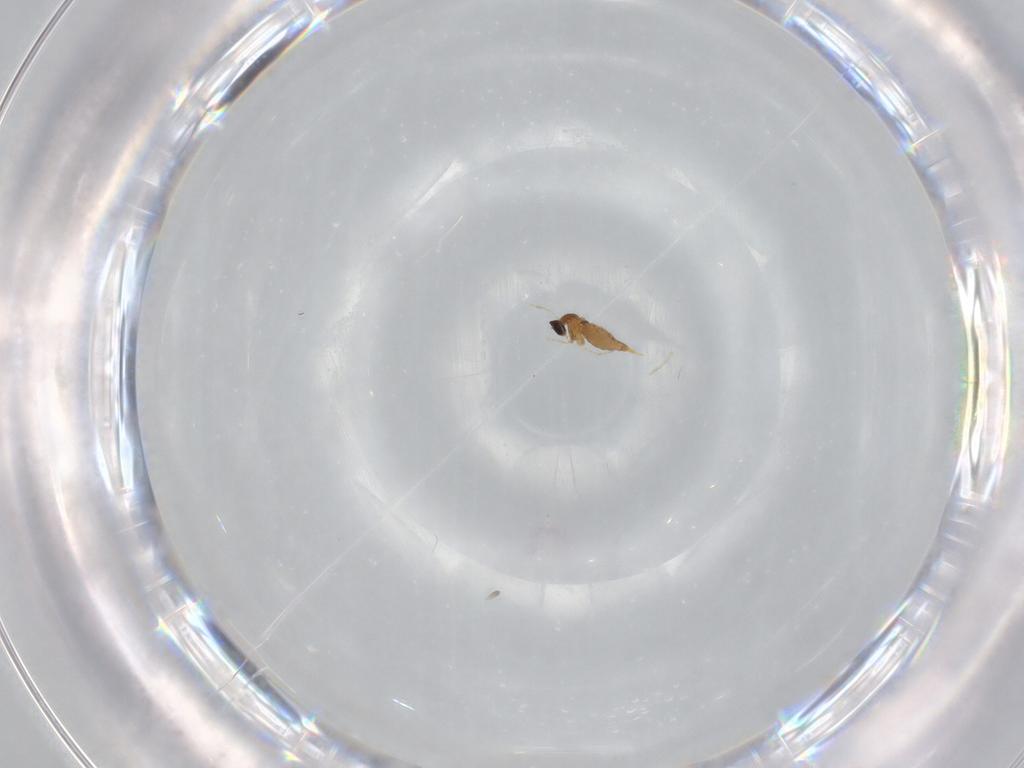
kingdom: Animalia
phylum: Arthropoda
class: Insecta
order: Diptera
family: Cecidomyiidae
